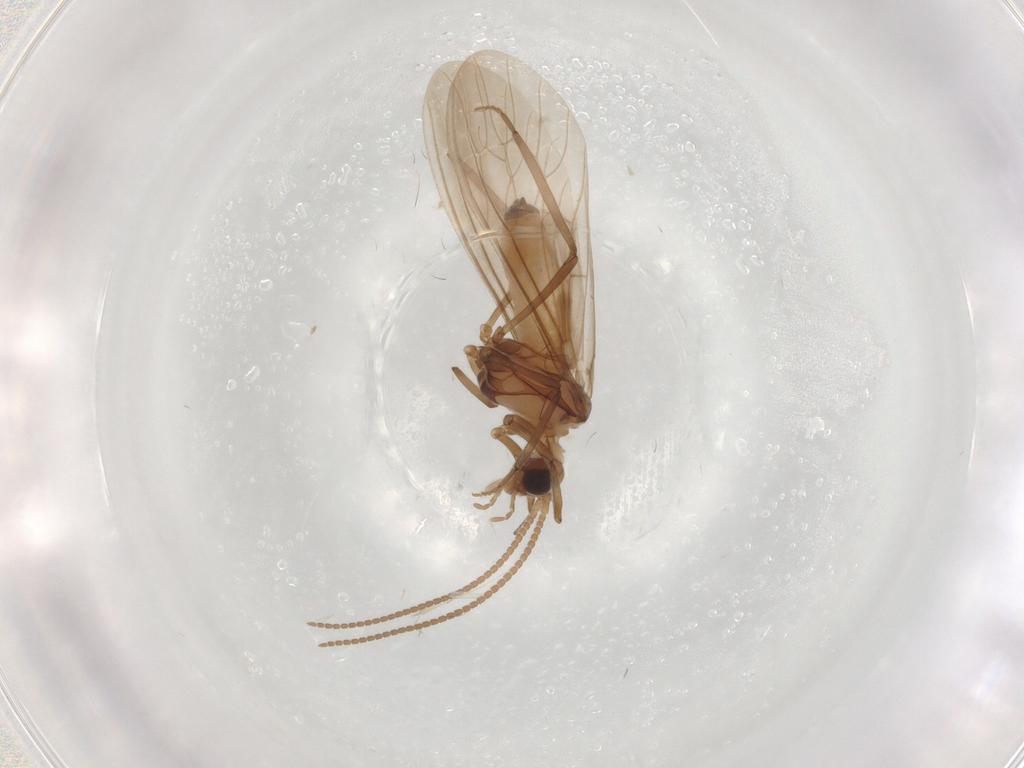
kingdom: Animalia
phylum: Arthropoda
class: Insecta
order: Neuroptera
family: Coniopterygidae
